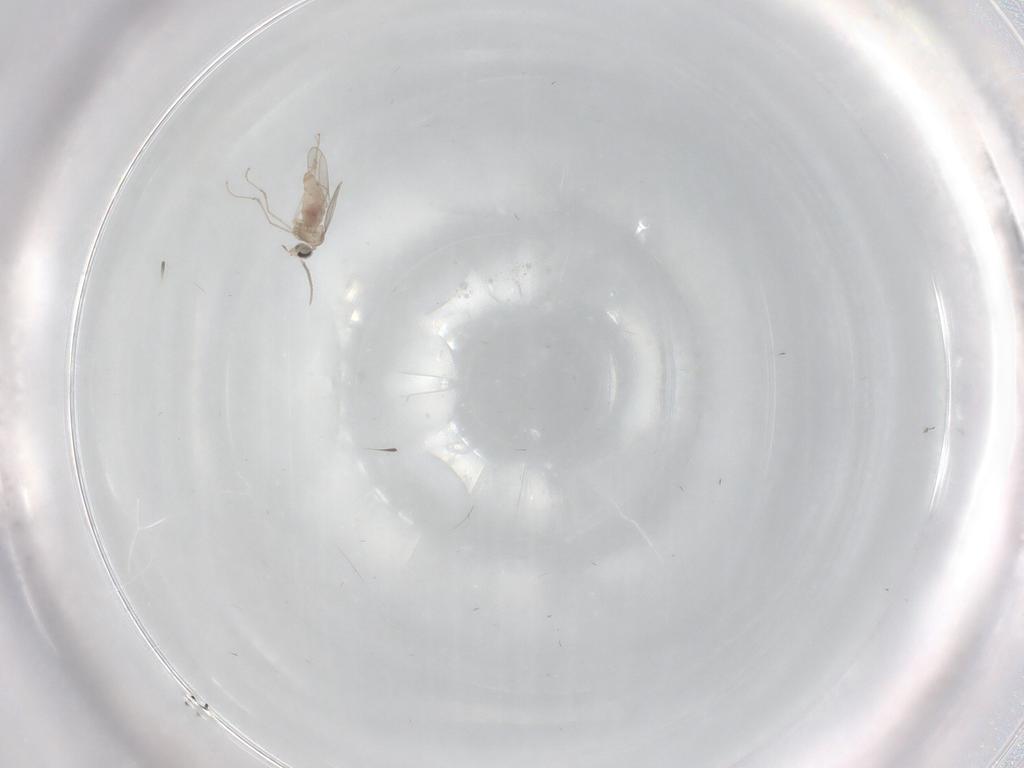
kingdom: Animalia
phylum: Arthropoda
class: Insecta
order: Diptera
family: Cecidomyiidae
